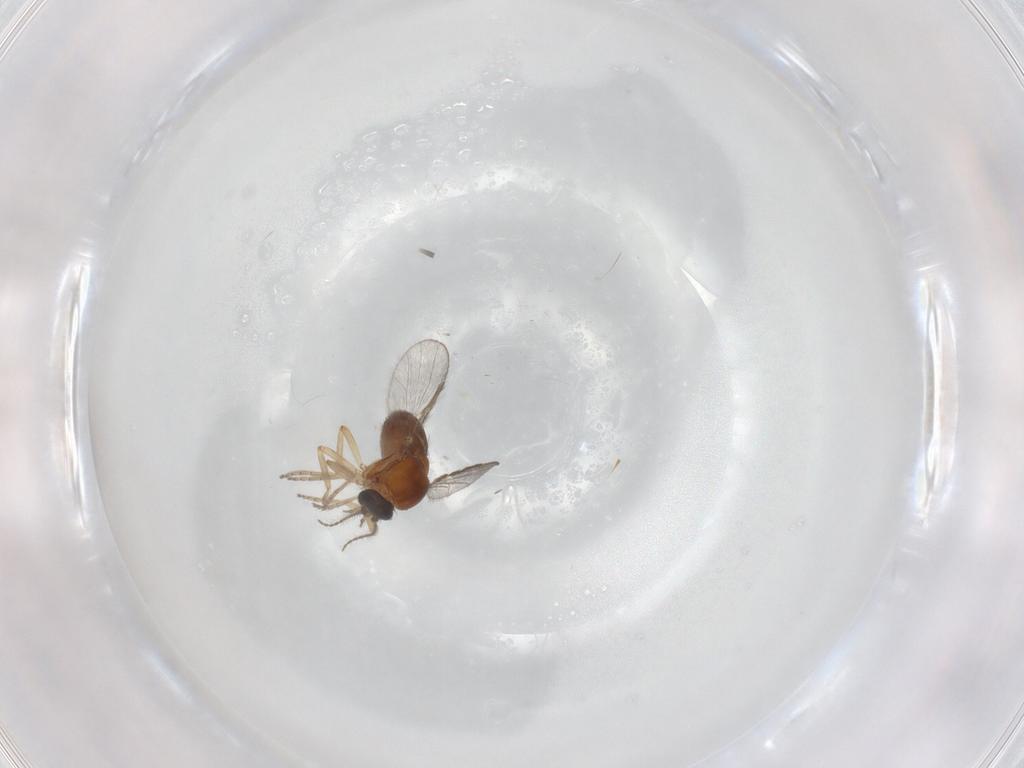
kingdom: Animalia
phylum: Arthropoda
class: Insecta
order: Diptera
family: Ceratopogonidae
